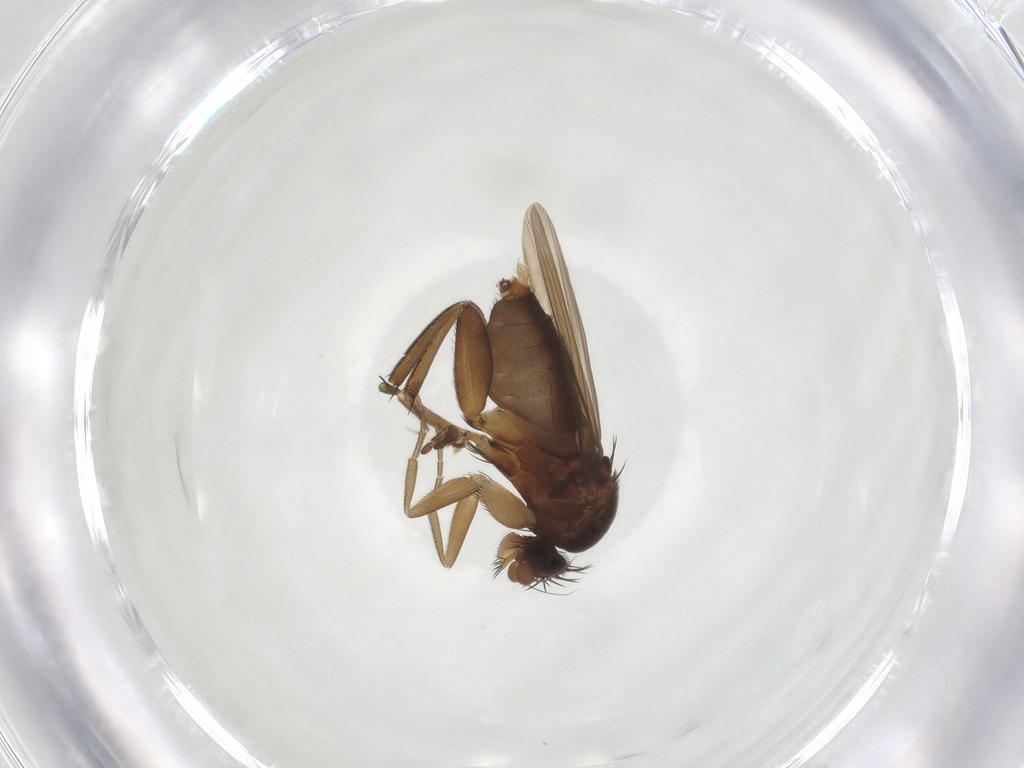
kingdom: Animalia
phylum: Arthropoda
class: Insecta
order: Diptera
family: Phoridae
